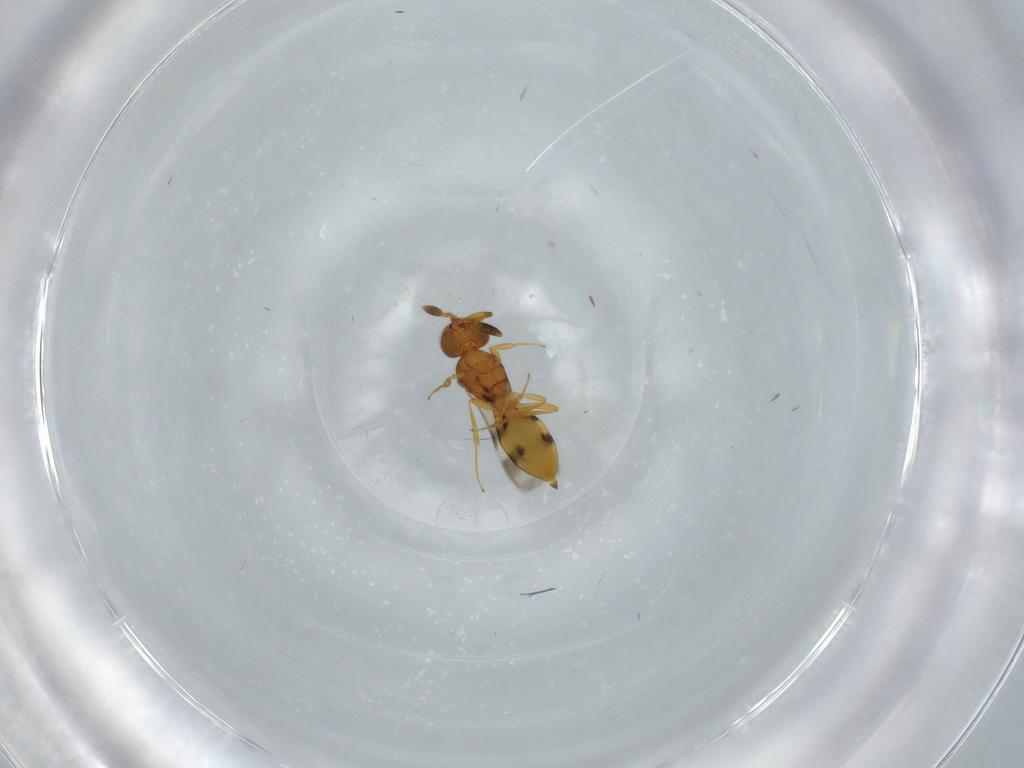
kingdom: Animalia
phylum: Arthropoda
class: Insecta
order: Hymenoptera
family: Scelionidae
